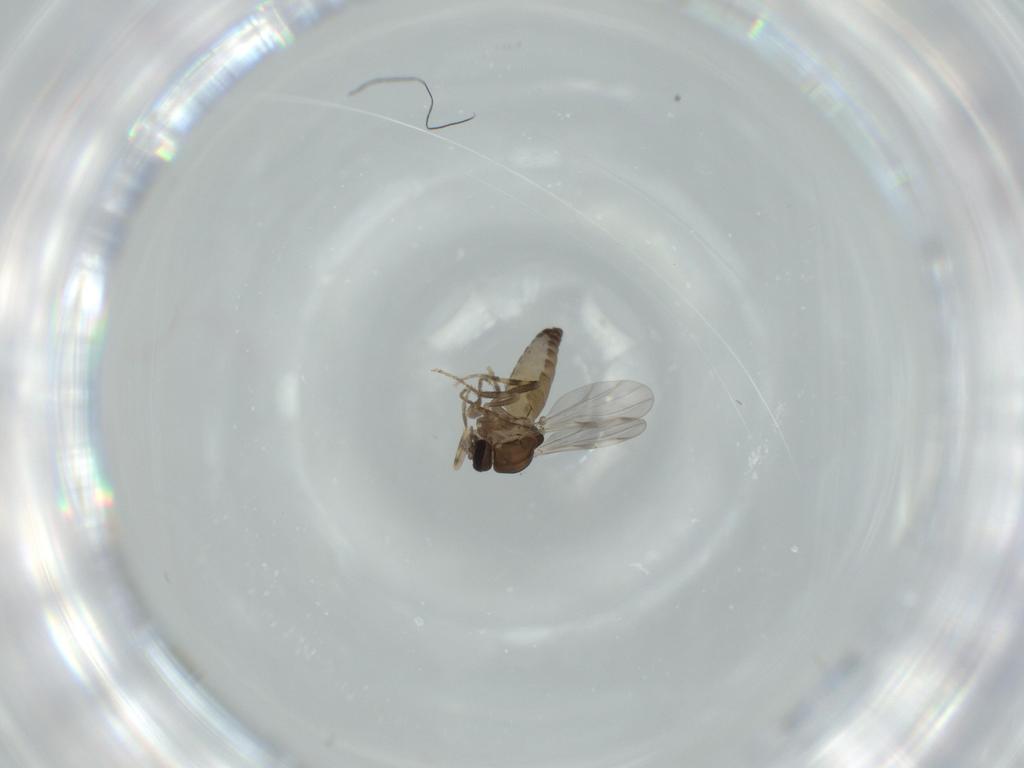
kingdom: Animalia
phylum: Arthropoda
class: Insecta
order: Diptera
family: Ceratopogonidae
